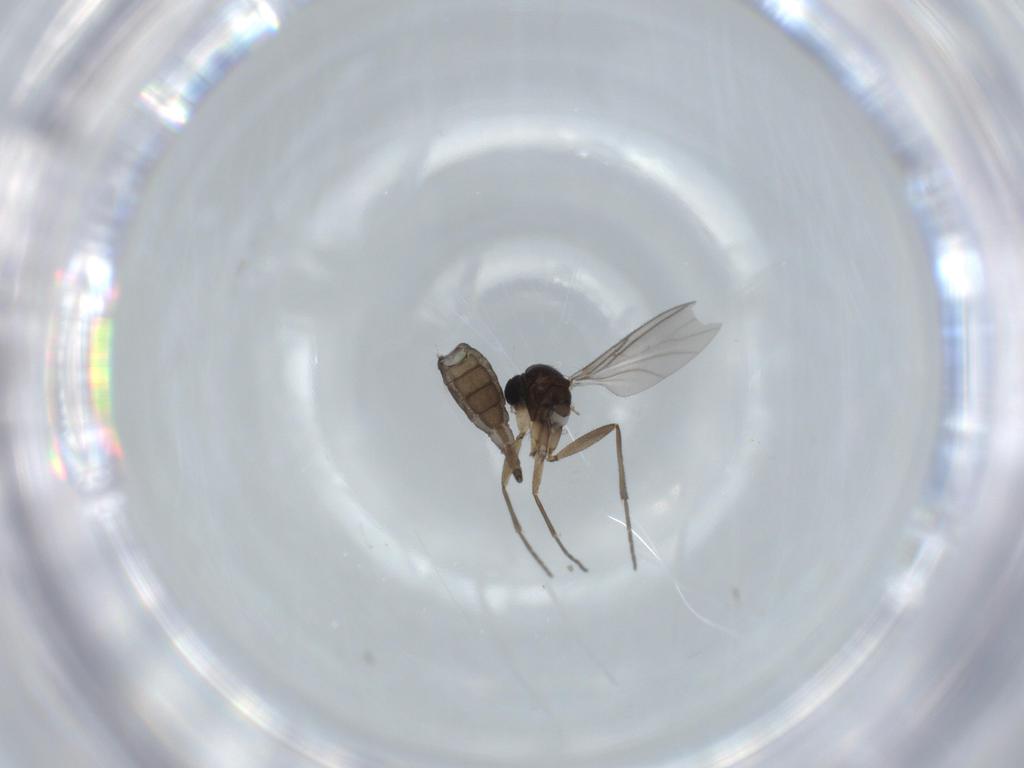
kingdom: Animalia
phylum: Arthropoda
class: Insecta
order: Diptera
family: Sciaridae
